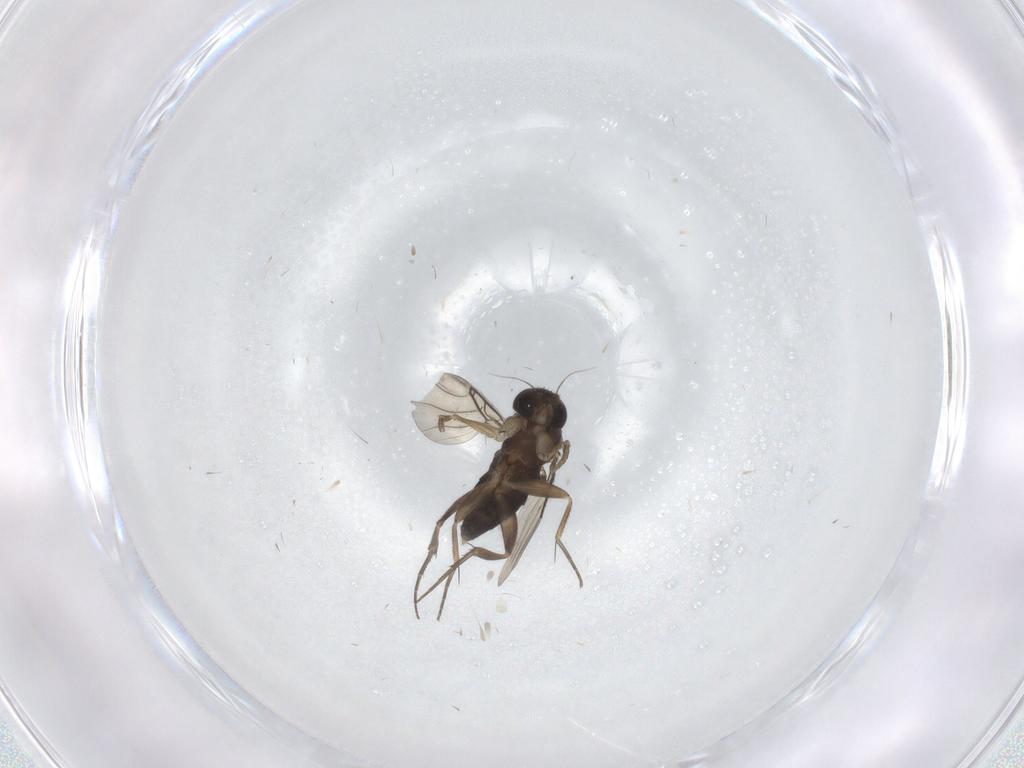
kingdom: Animalia
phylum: Arthropoda
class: Insecta
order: Diptera
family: Phoridae
